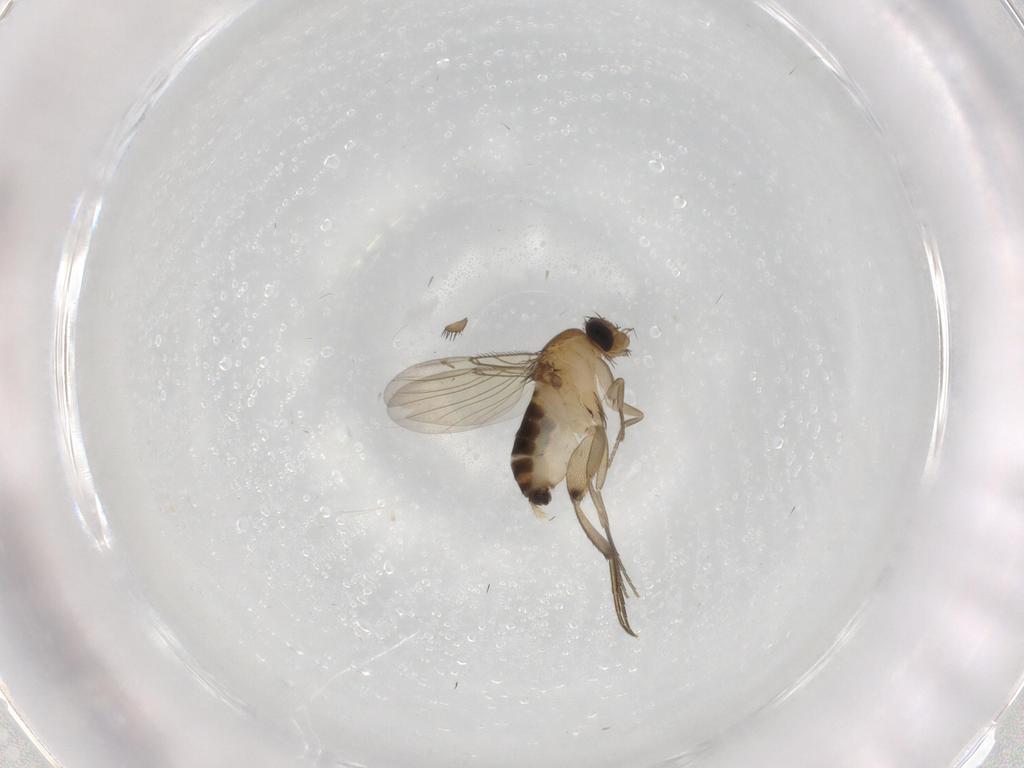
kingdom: Animalia
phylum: Arthropoda
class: Insecta
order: Diptera
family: Phoridae
